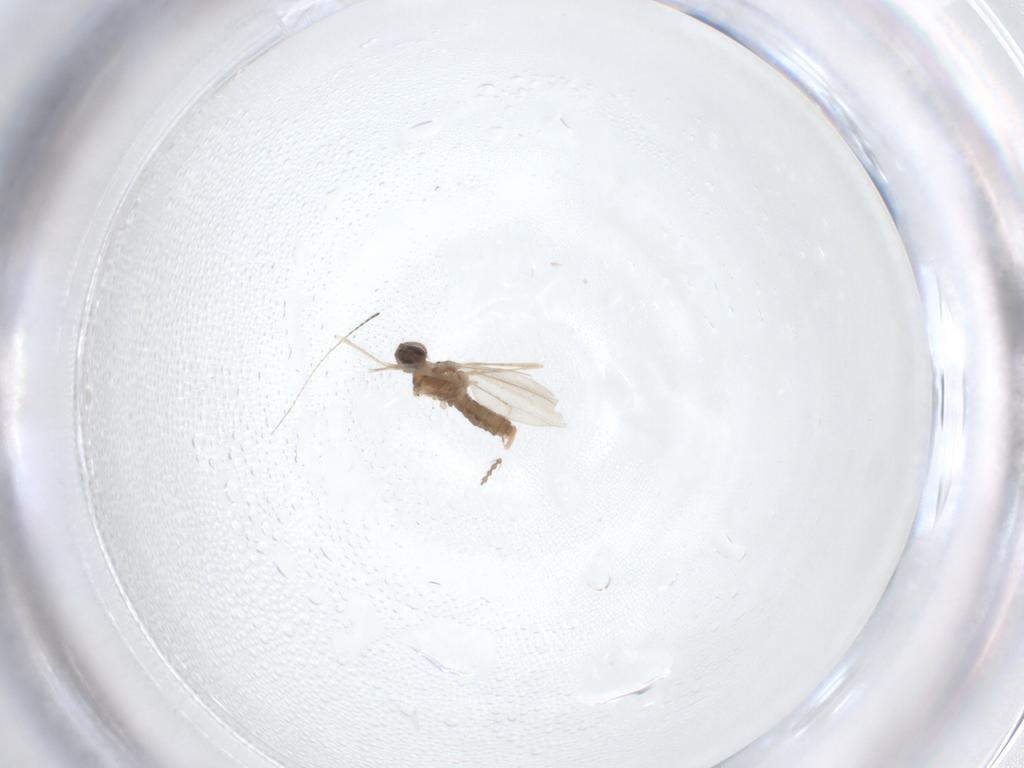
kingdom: Animalia
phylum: Arthropoda
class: Insecta
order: Diptera
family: Cecidomyiidae
